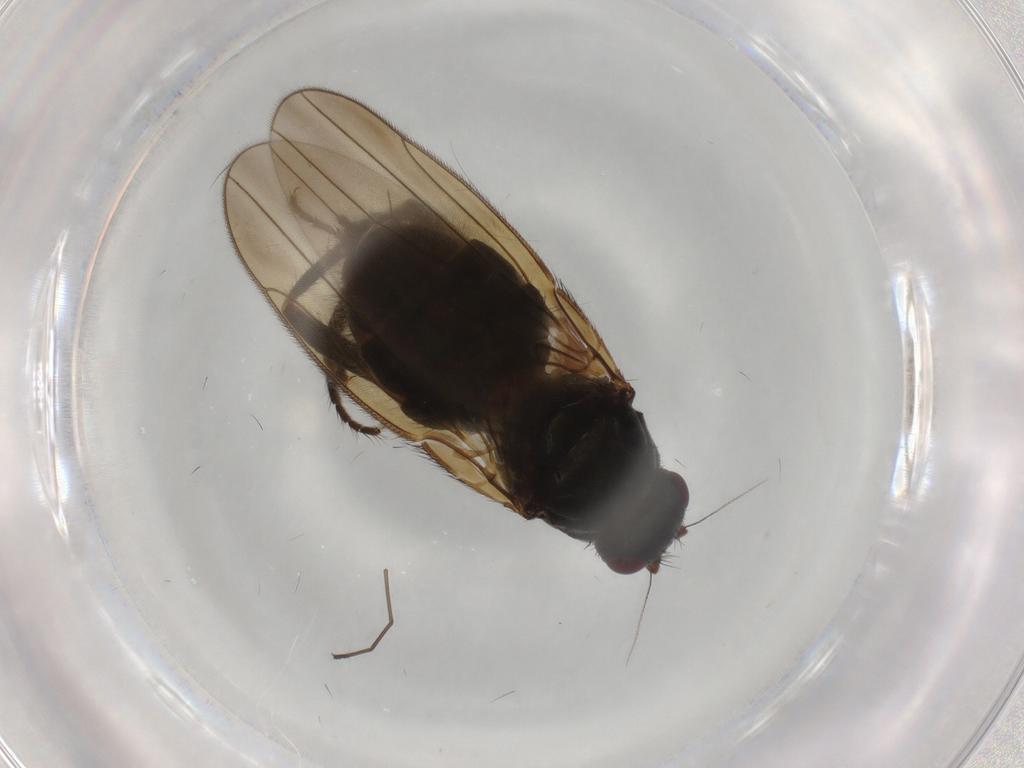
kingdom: Animalia
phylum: Arthropoda
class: Insecta
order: Diptera
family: Sphaeroceridae
